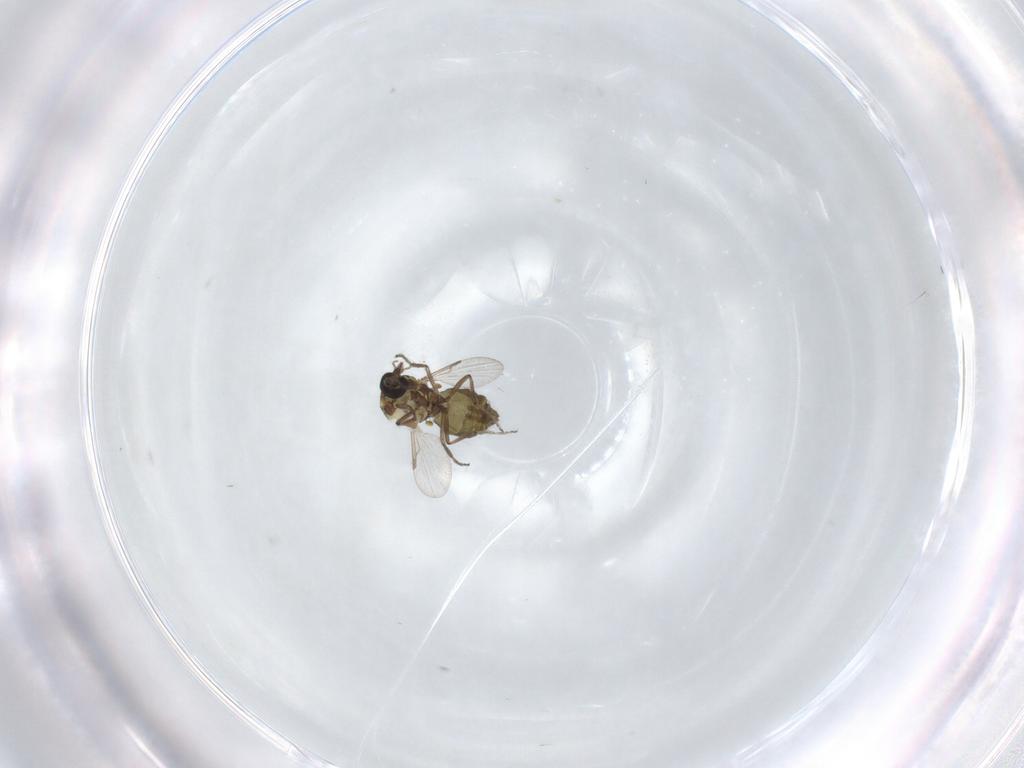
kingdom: Animalia
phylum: Arthropoda
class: Insecta
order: Diptera
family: Ceratopogonidae
